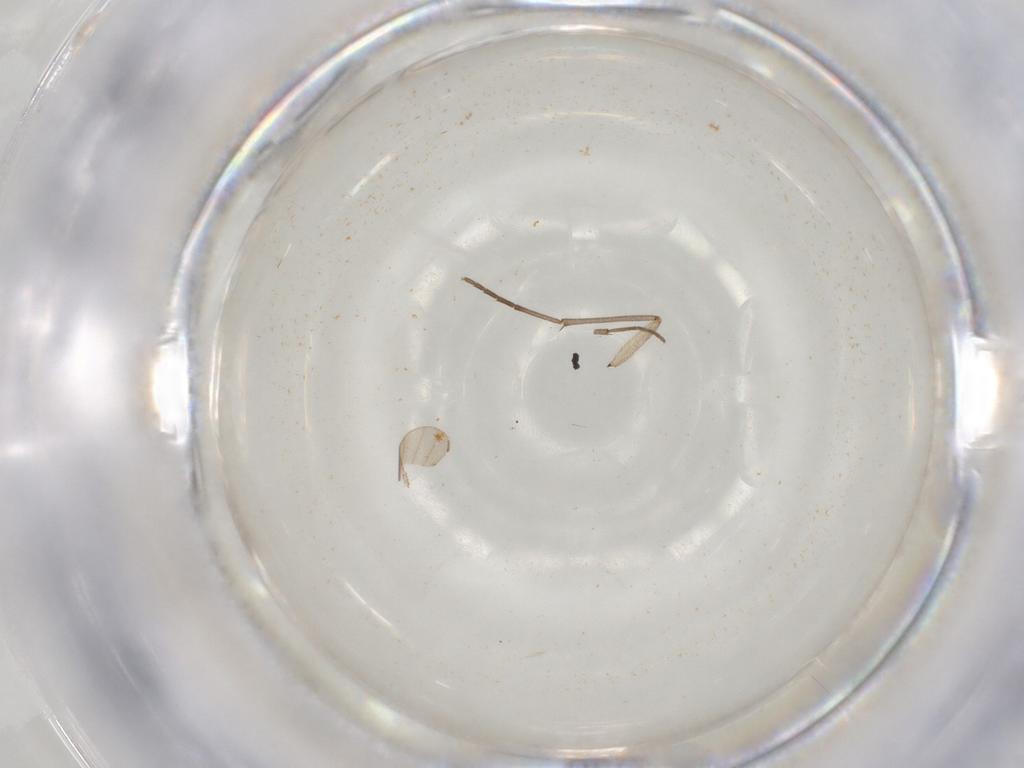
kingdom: Animalia
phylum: Arthropoda
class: Insecta
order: Diptera
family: Sciaridae
